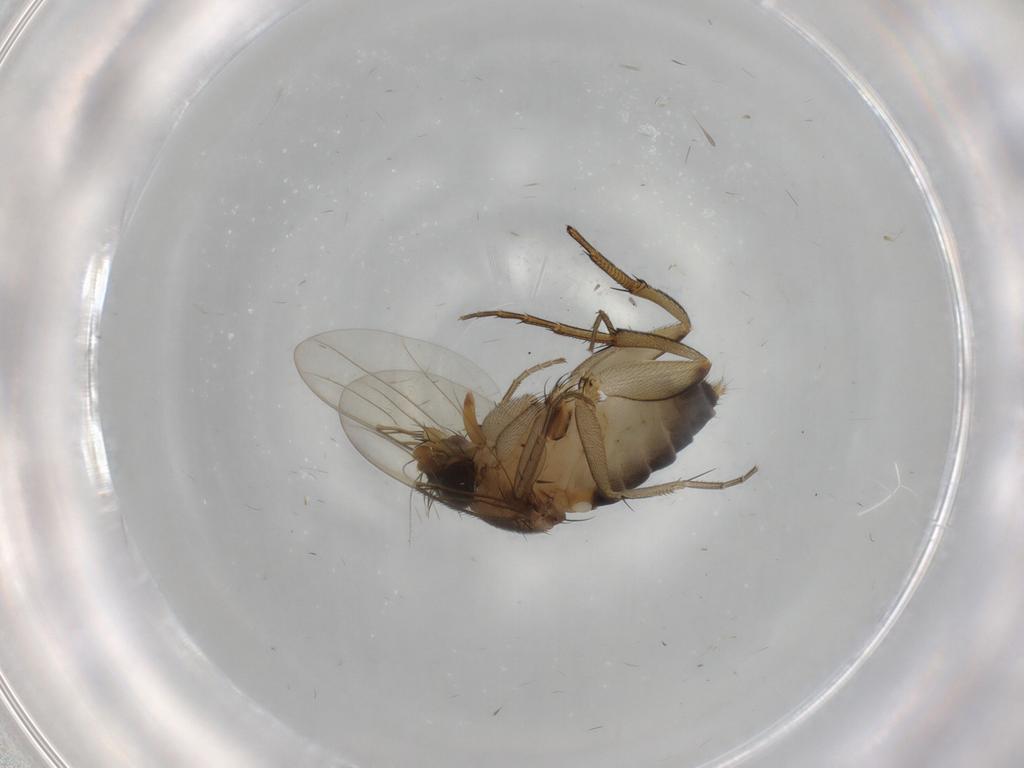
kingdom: Animalia
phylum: Arthropoda
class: Insecta
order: Diptera
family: Phoridae
